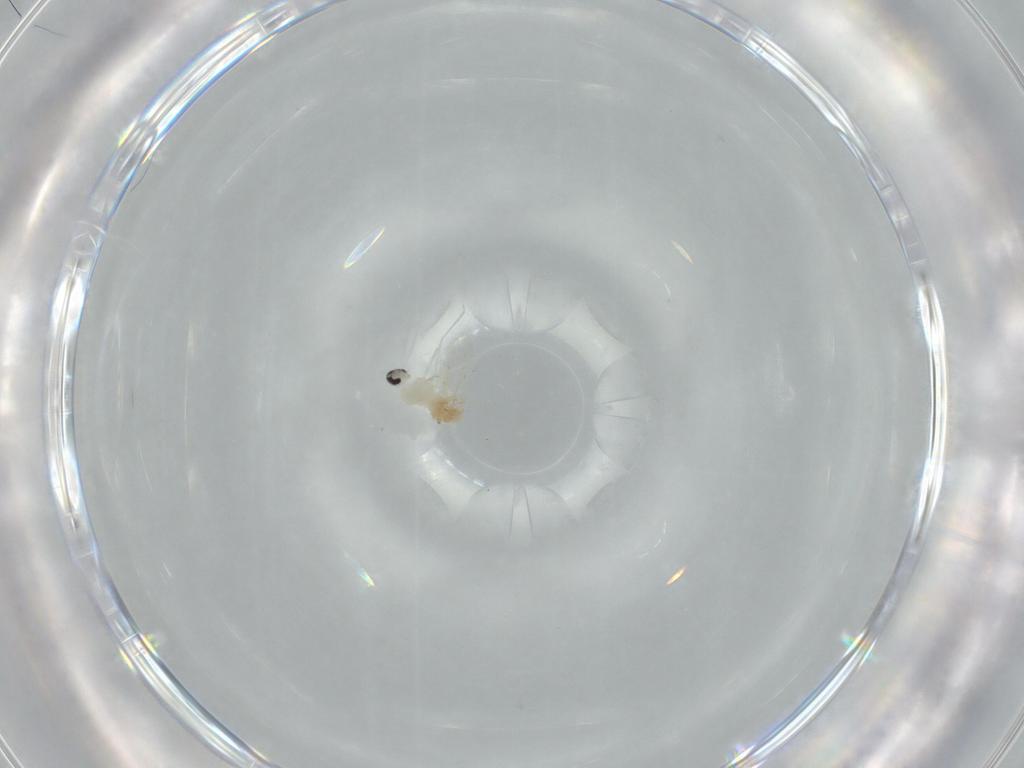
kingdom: Animalia
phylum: Arthropoda
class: Insecta
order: Diptera
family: Cecidomyiidae
